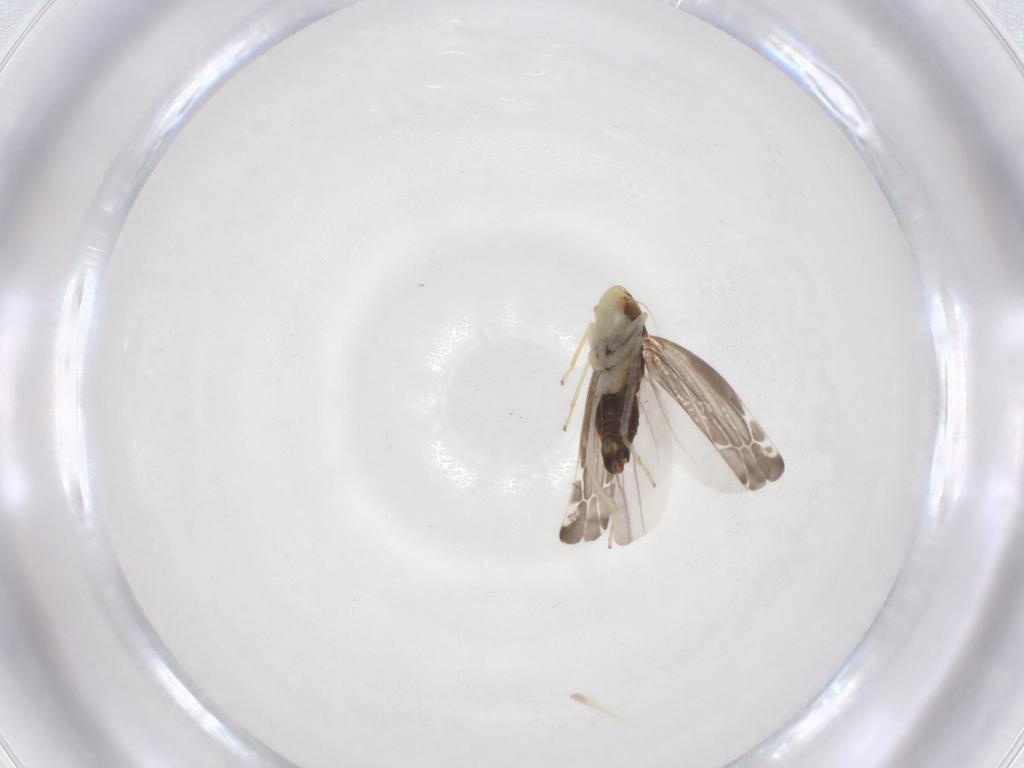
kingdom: Animalia
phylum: Arthropoda
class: Insecta
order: Hemiptera
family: Cicadellidae
